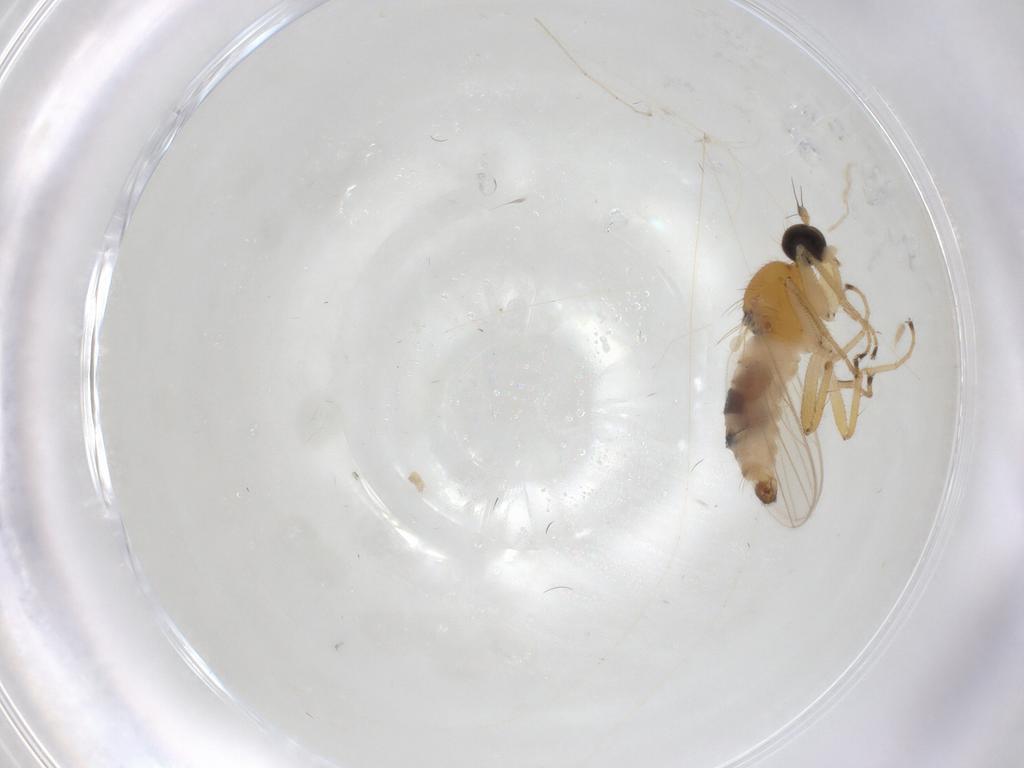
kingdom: Animalia
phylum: Arthropoda
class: Insecta
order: Diptera
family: Hybotidae
